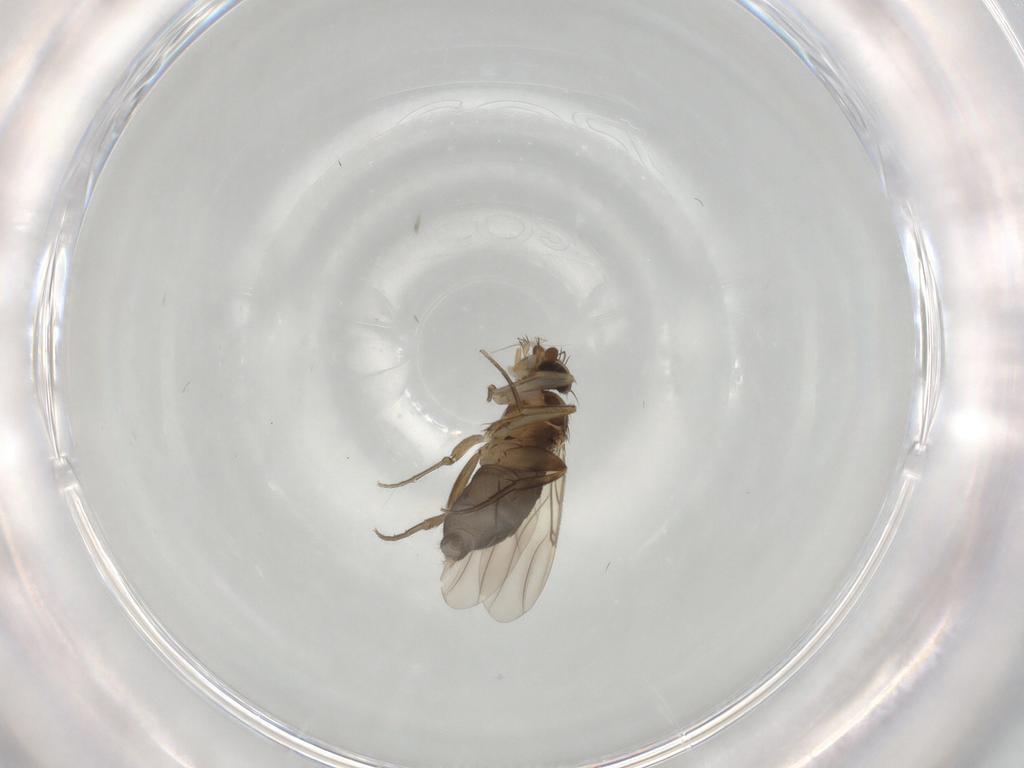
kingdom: Animalia
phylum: Arthropoda
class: Insecta
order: Diptera
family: Phoridae
